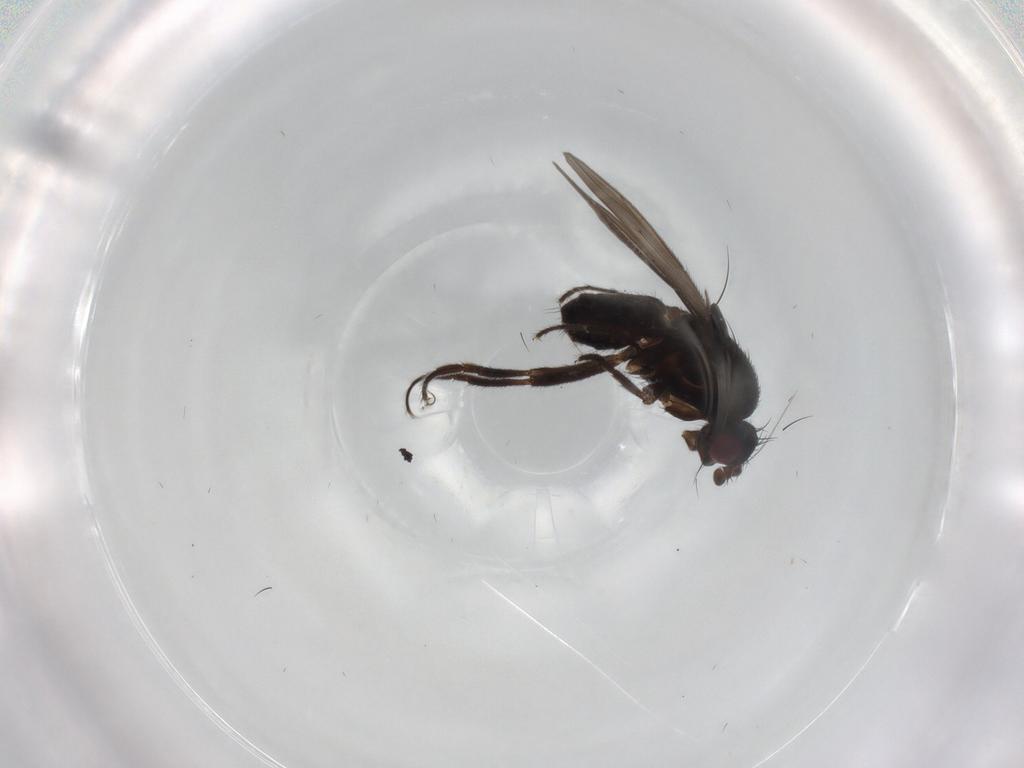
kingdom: Animalia
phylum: Arthropoda
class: Insecta
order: Diptera
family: Sphaeroceridae
